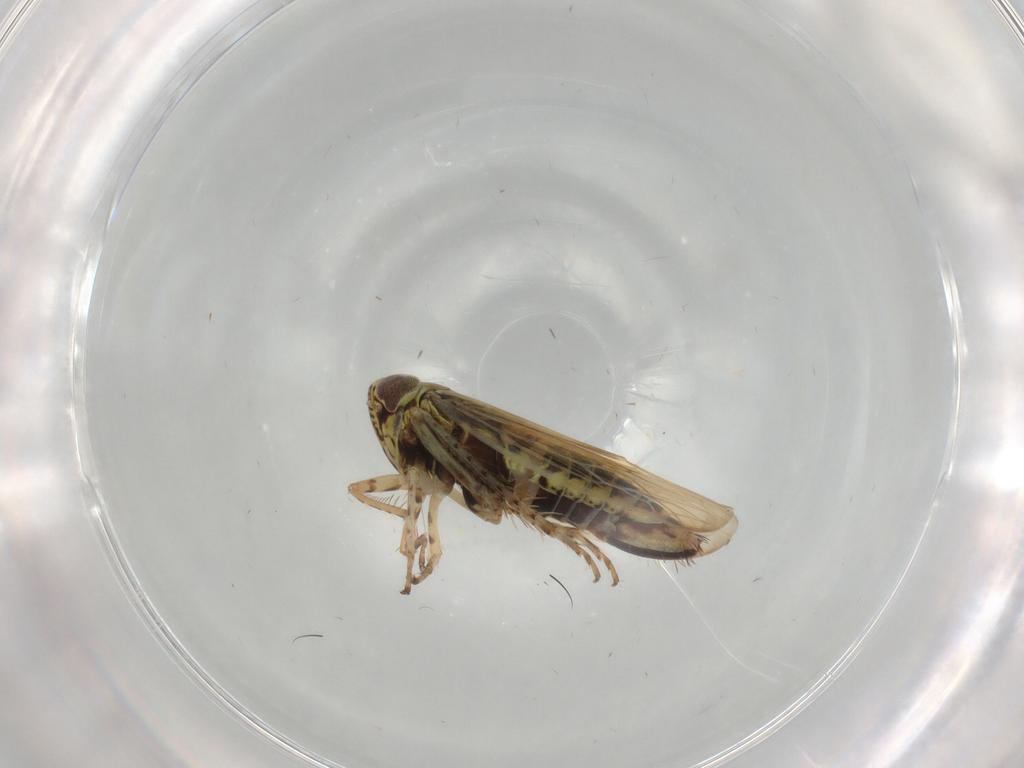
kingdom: Animalia
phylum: Arthropoda
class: Insecta
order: Hemiptera
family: Cicadellidae
